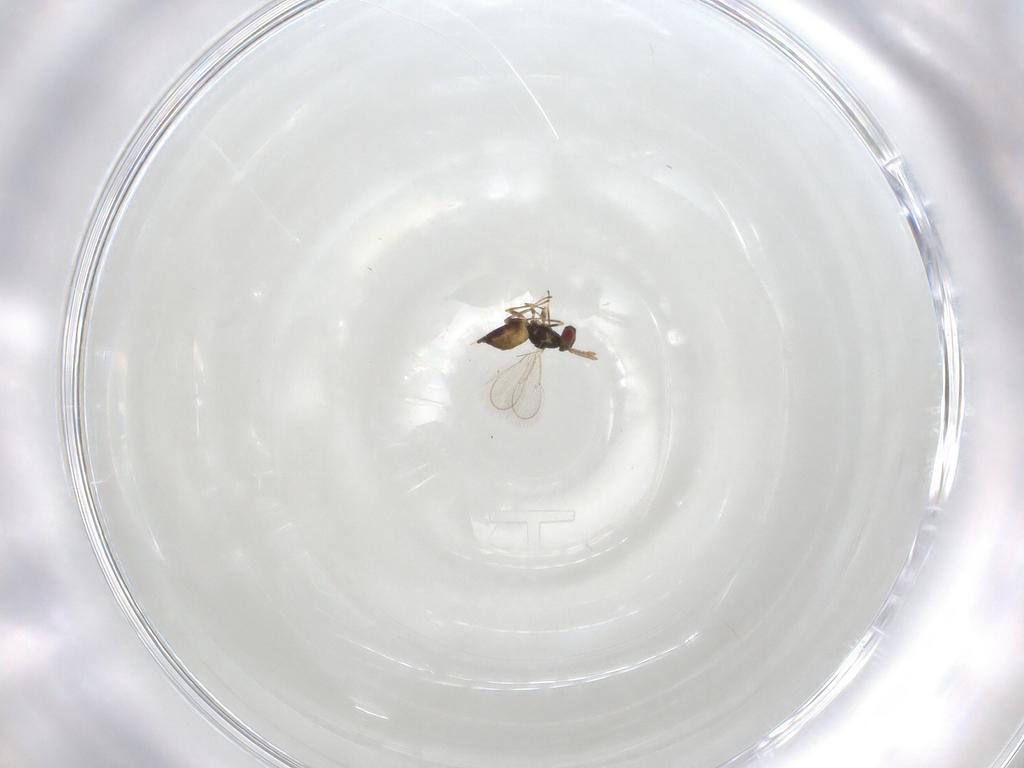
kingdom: Animalia
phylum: Arthropoda
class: Insecta
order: Hymenoptera
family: Eulophidae
